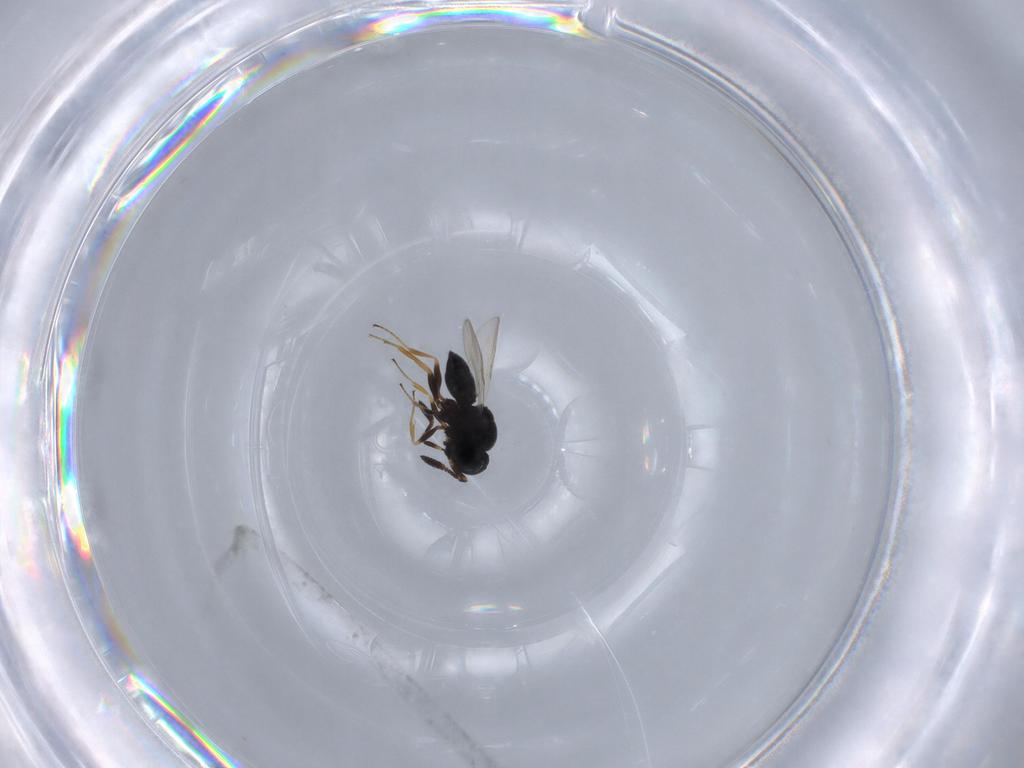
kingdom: Animalia
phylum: Arthropoda
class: Insecta
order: Hymenoptera
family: Scelionidae
